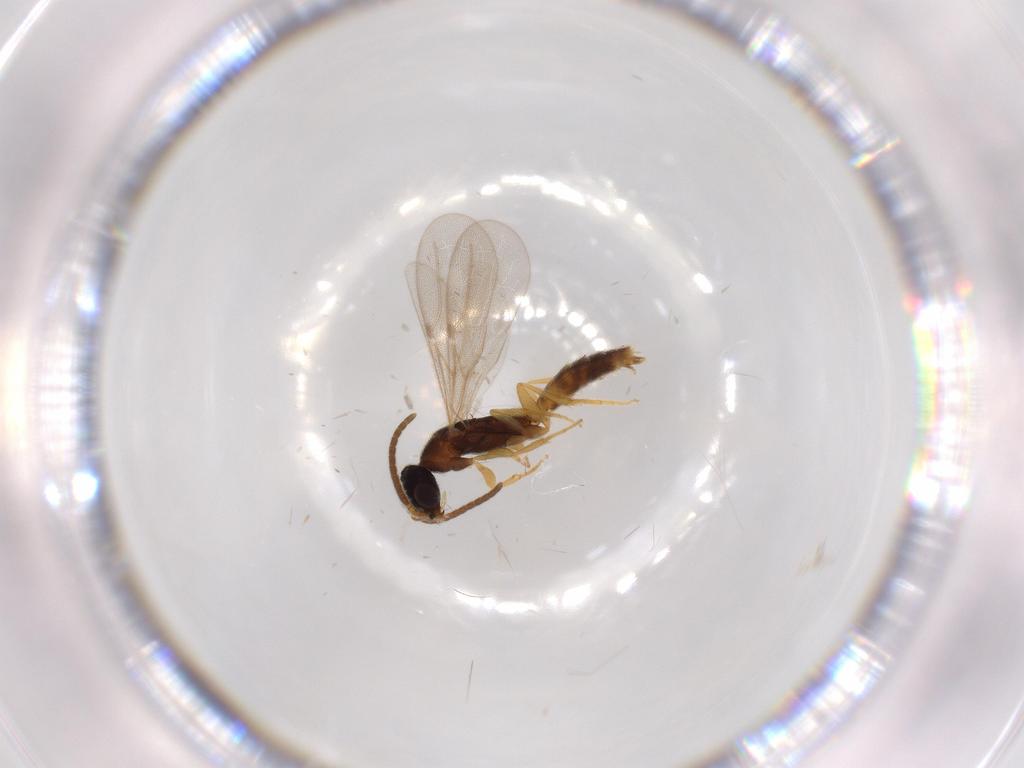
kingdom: Animalia
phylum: Arthropoda
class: Insecta
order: Hymenoptera
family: Bethylidae
